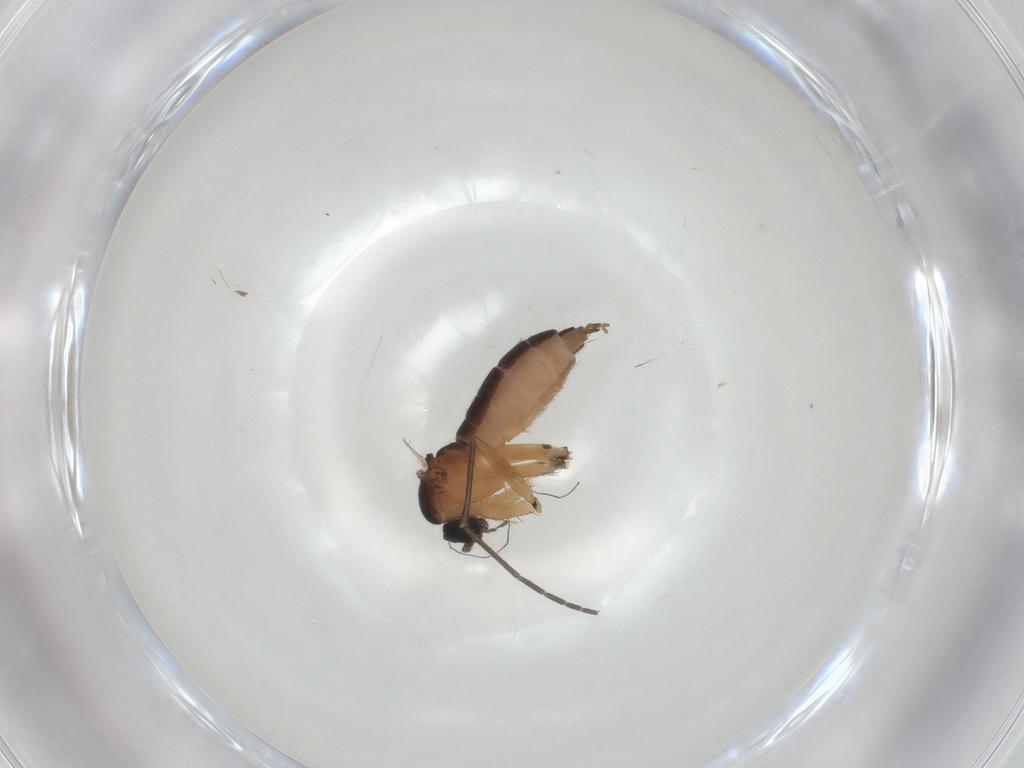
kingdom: Animalia
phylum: Arthropoda
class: Insecta
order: Diptera
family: Sciaridae
